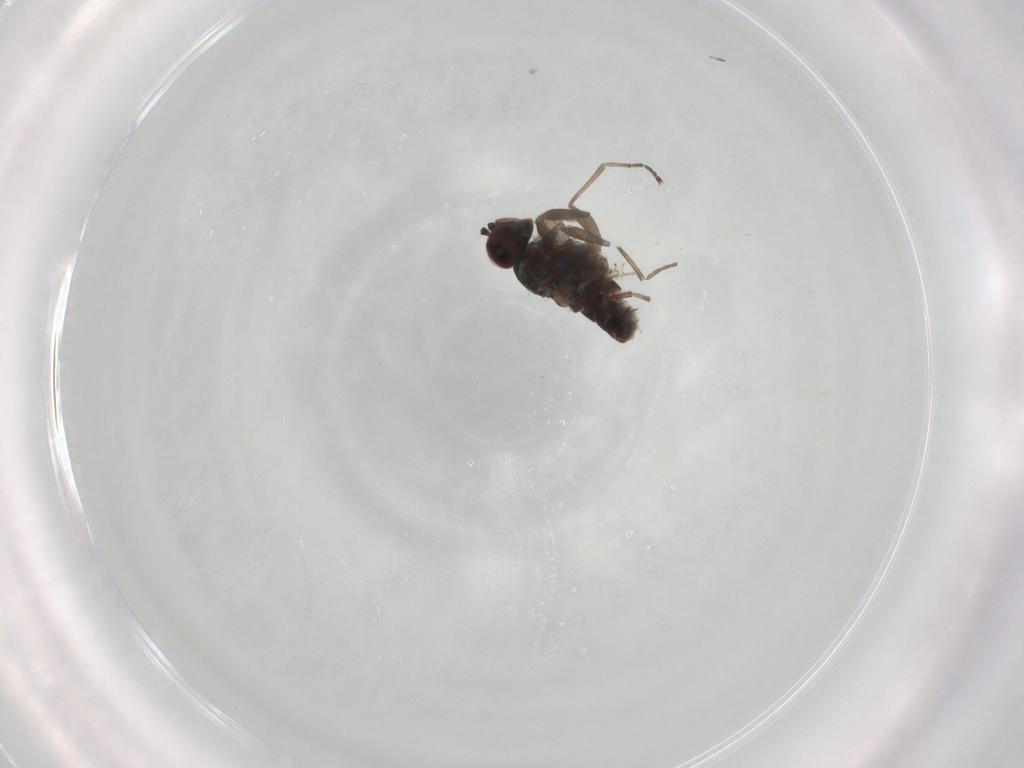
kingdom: Animalia
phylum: Arthropoda
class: Insecta
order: Diptera
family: Dolichopodidae
